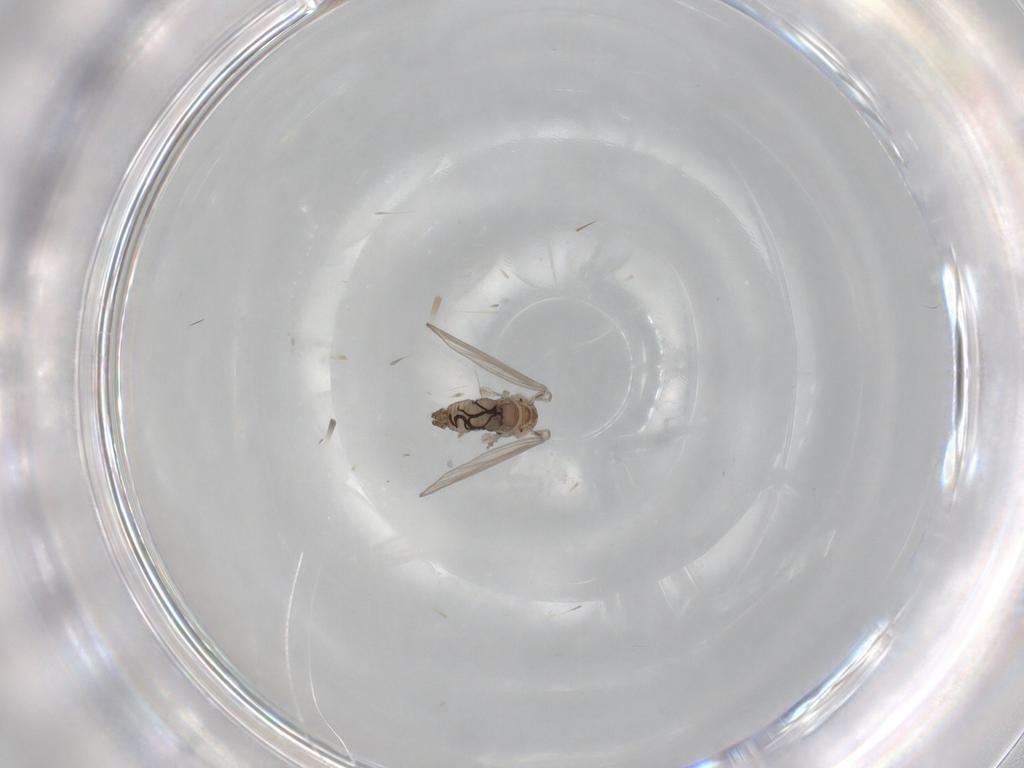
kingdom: Animalia
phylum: Arthropoda
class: Insecta
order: Diptera
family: Psychodidae
